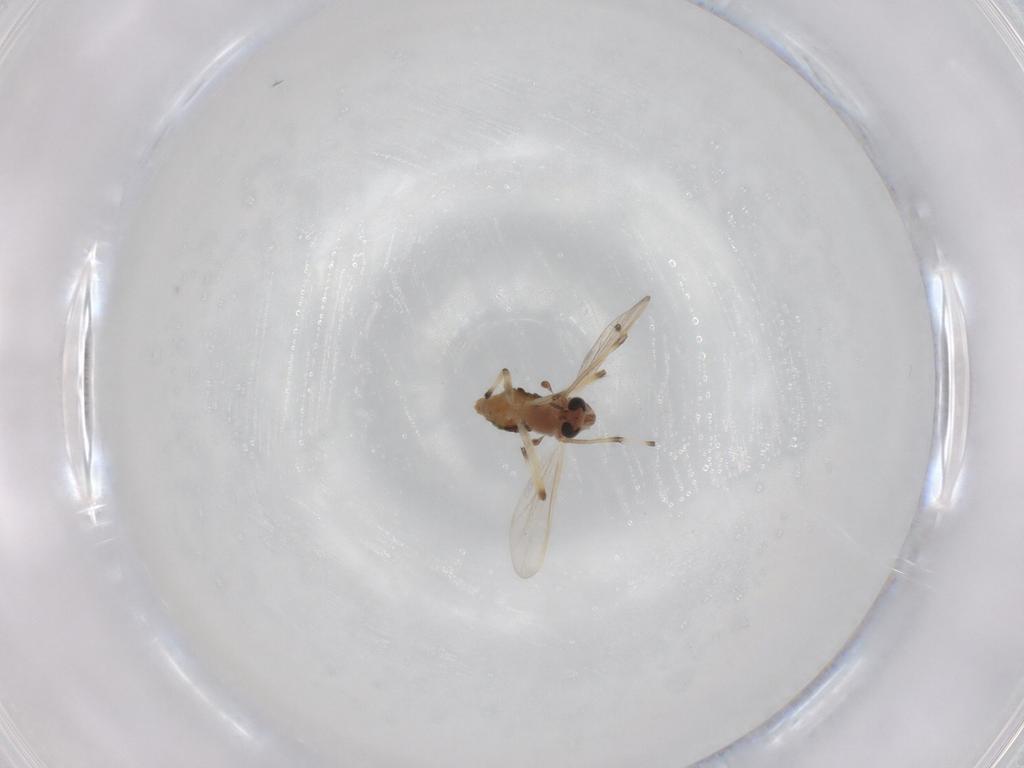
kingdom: Animalia
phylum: Arthropoda
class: Insecta
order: Diptera
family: Chironomidae
